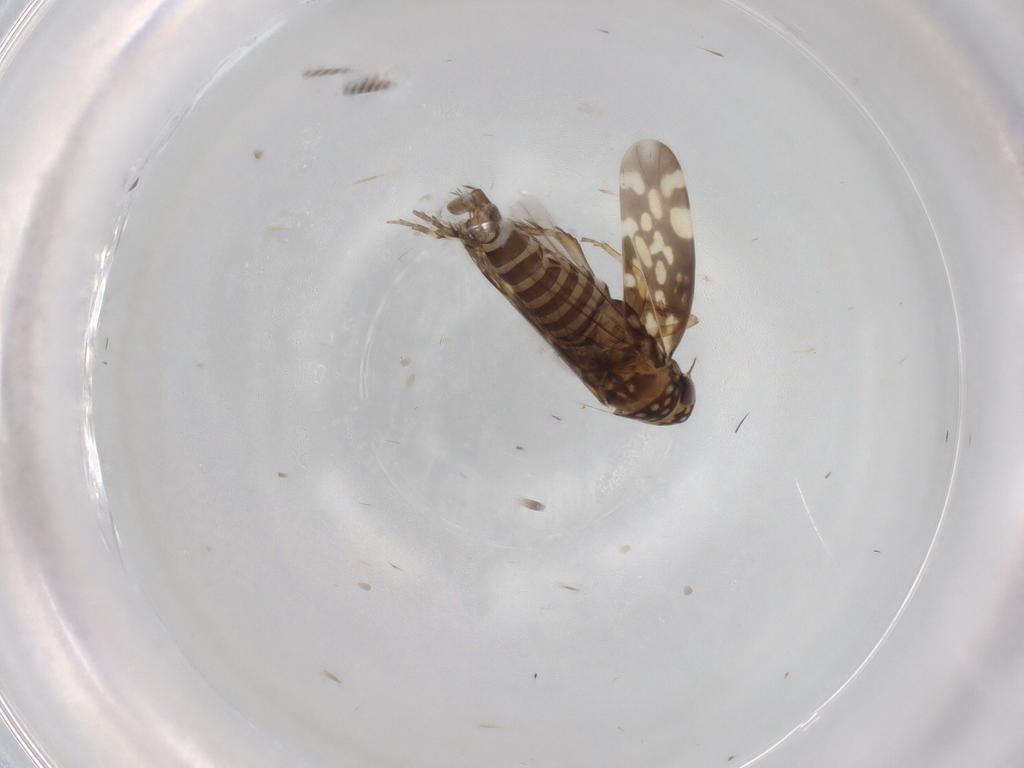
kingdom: Animalia
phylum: Arthropoda
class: Insecta
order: Hemiptera
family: Cicadellidae
